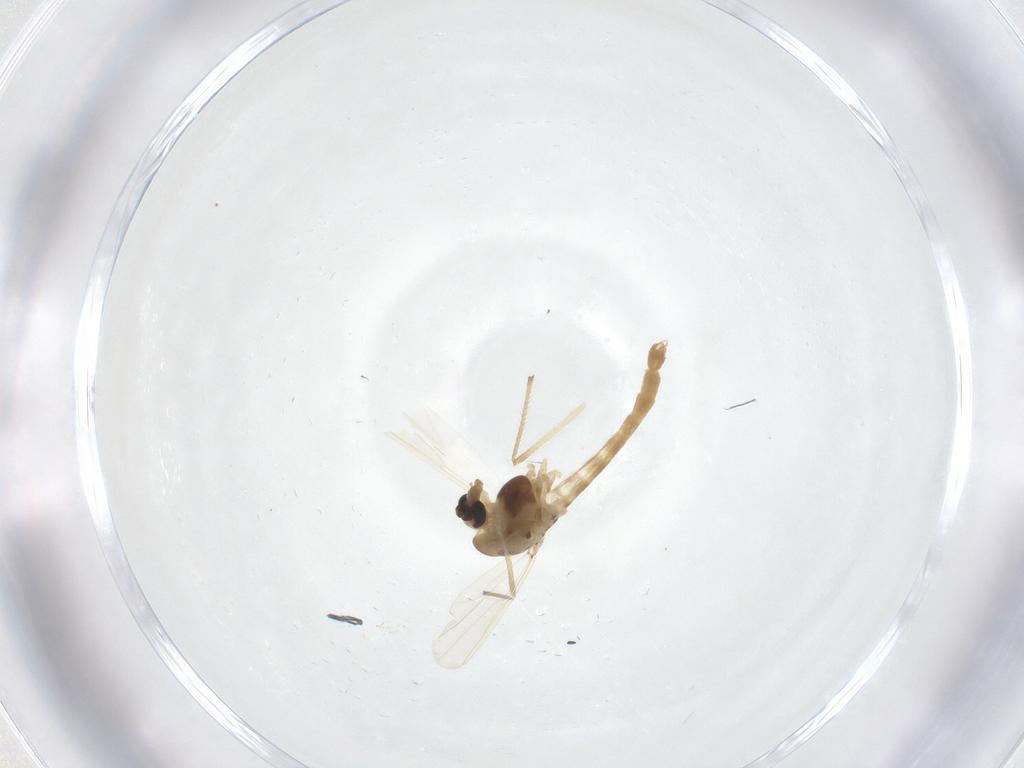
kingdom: Animalia
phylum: Arthropoda
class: Insecta
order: Diptera
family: Chironomidae
